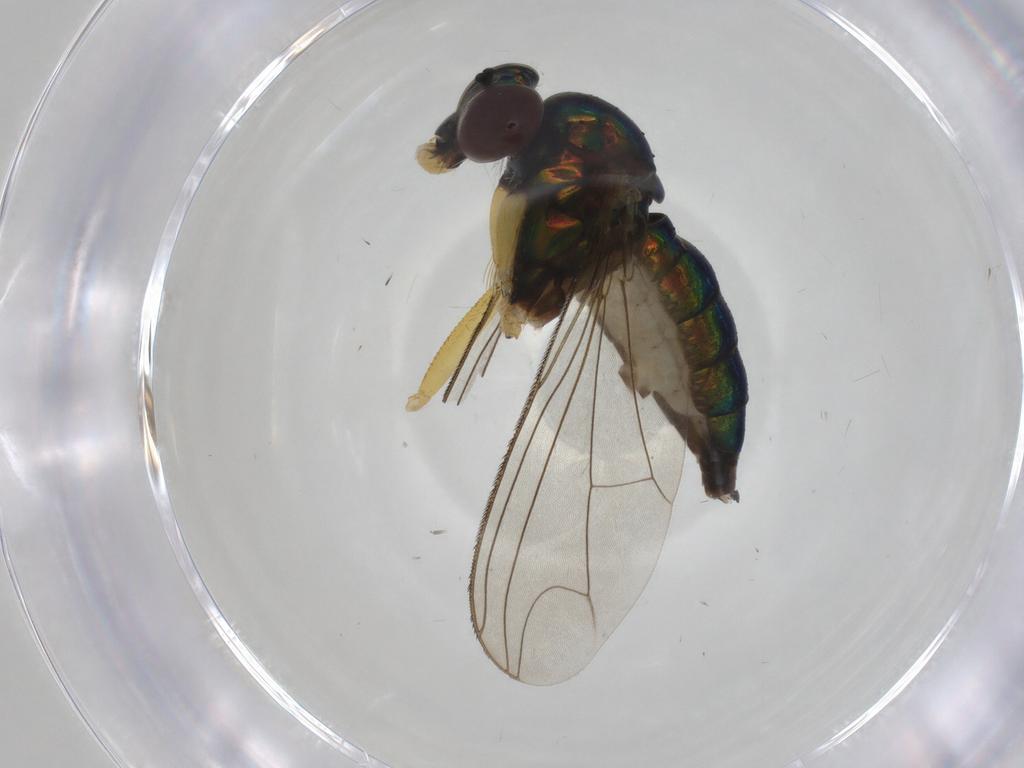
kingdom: Animalia
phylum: Arthropoda
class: Insecta
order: Diptera
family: Dolichopodidae
